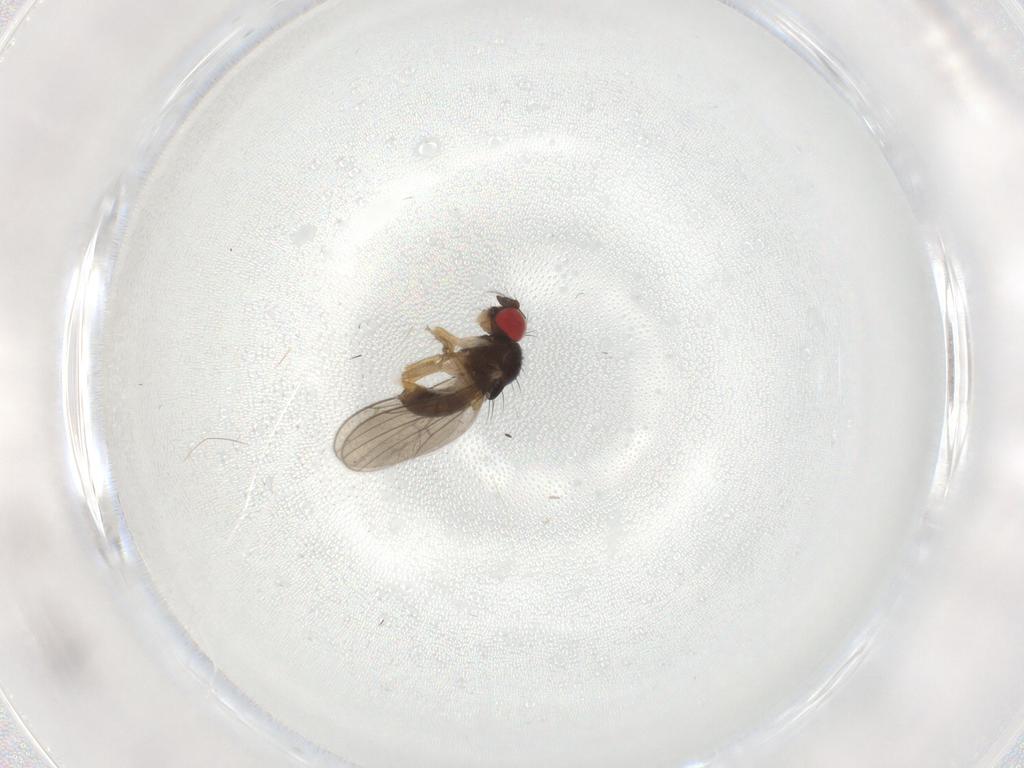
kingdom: Animalia
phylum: Arthropoda
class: Insecta
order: Diptera
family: Drosophilidae
